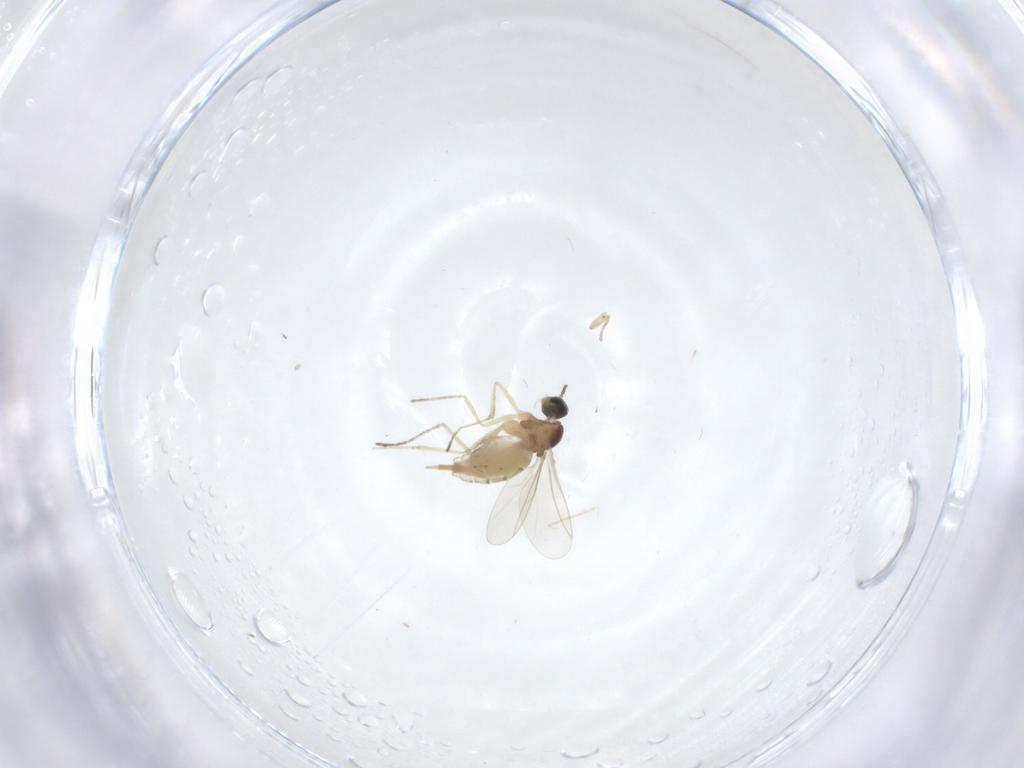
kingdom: Animalia
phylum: Arthropoda
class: Insecta
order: Diptera
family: Cecidomyiidae
